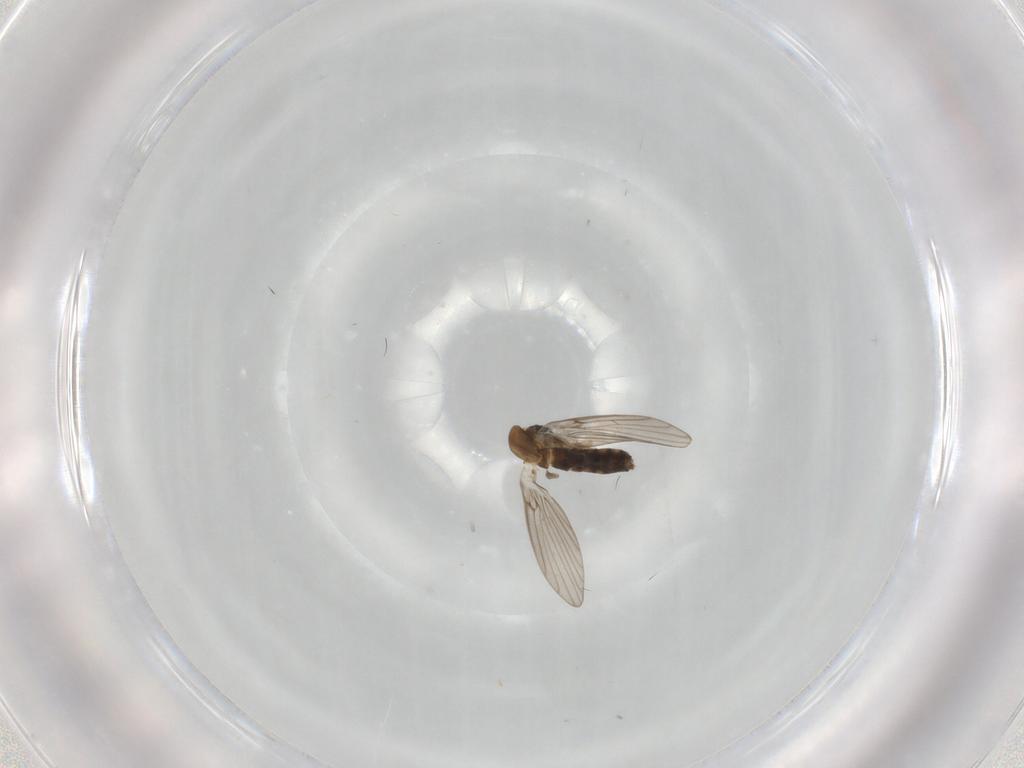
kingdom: Animalia
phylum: Arthropoda
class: Insecta
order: Diptera
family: Psychodidae
